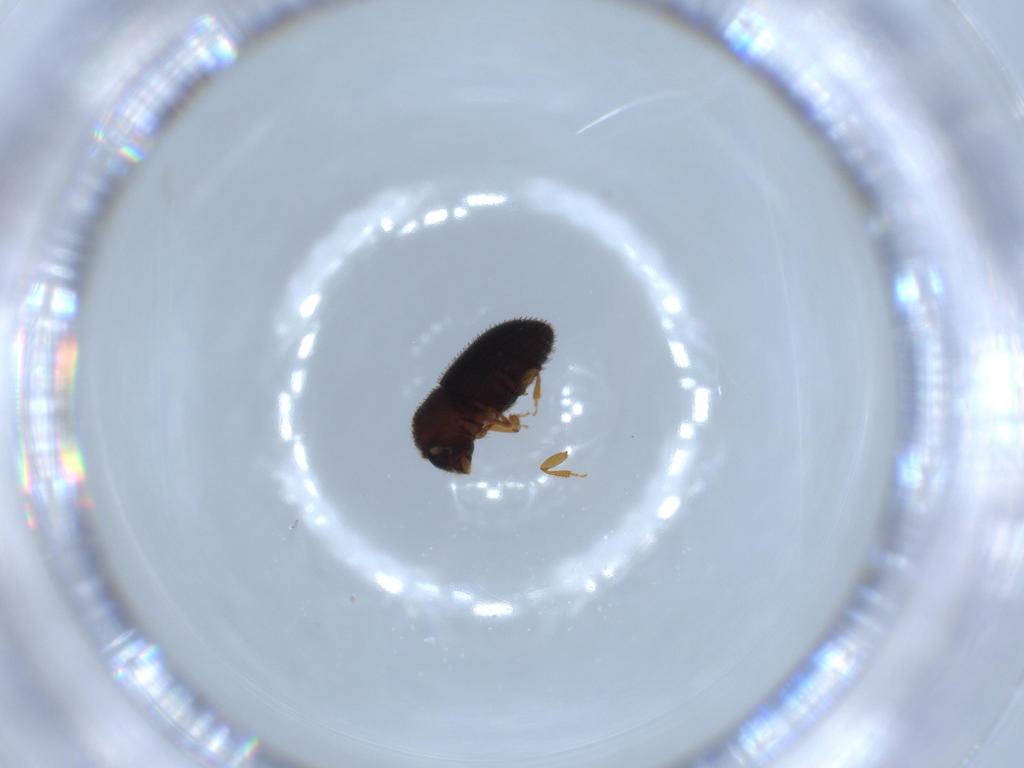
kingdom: Animalia
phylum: Arthropoda
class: Insecta
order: Coleoptera
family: Curculionidae
